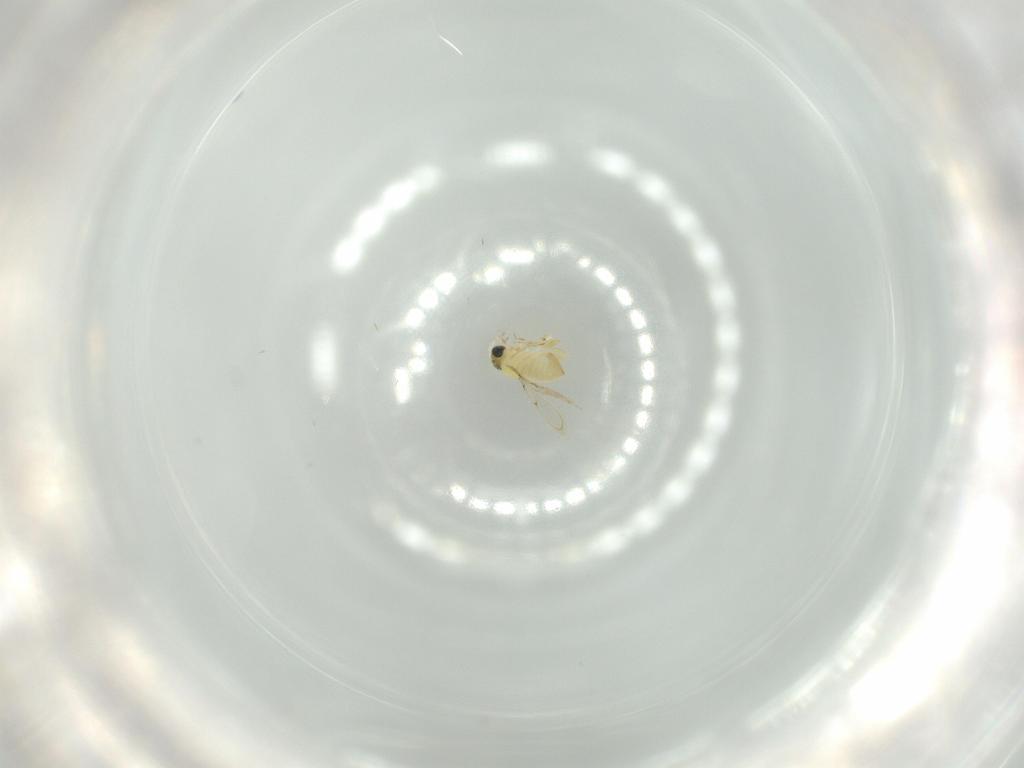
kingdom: Animalia
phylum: Arthropoda
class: Insecta
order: Hymenoptera
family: Trichogrammatidae
